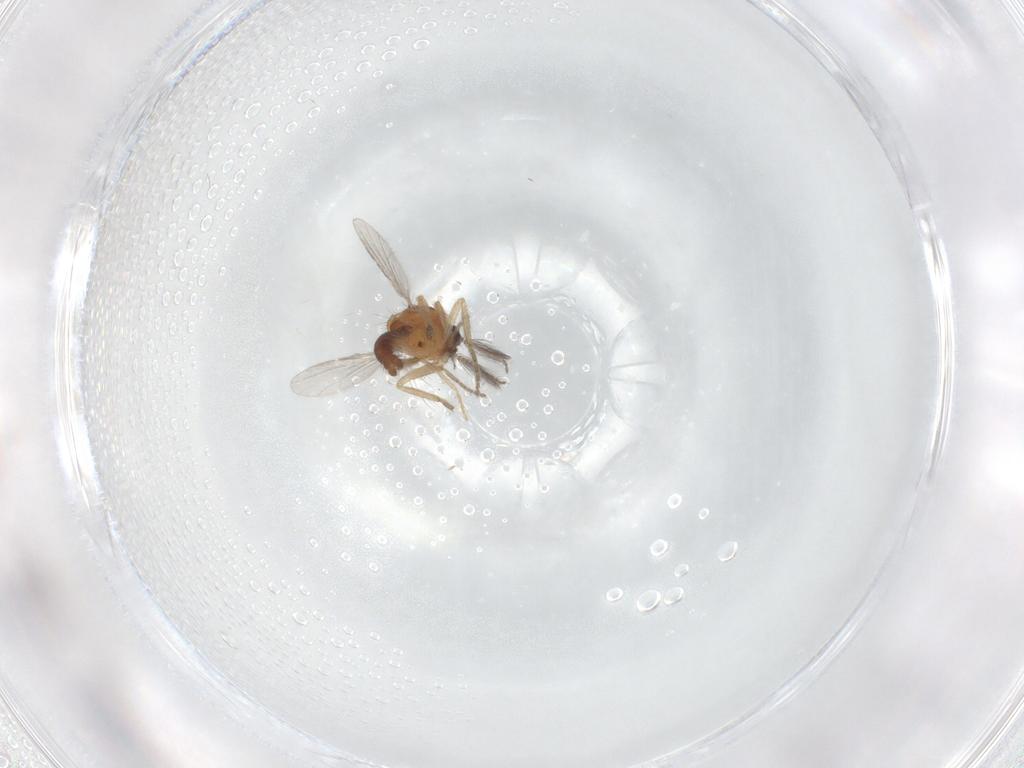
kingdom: Animalia
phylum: Arthropoda
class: Insecta
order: Diptera
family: Ceratopogonidae
